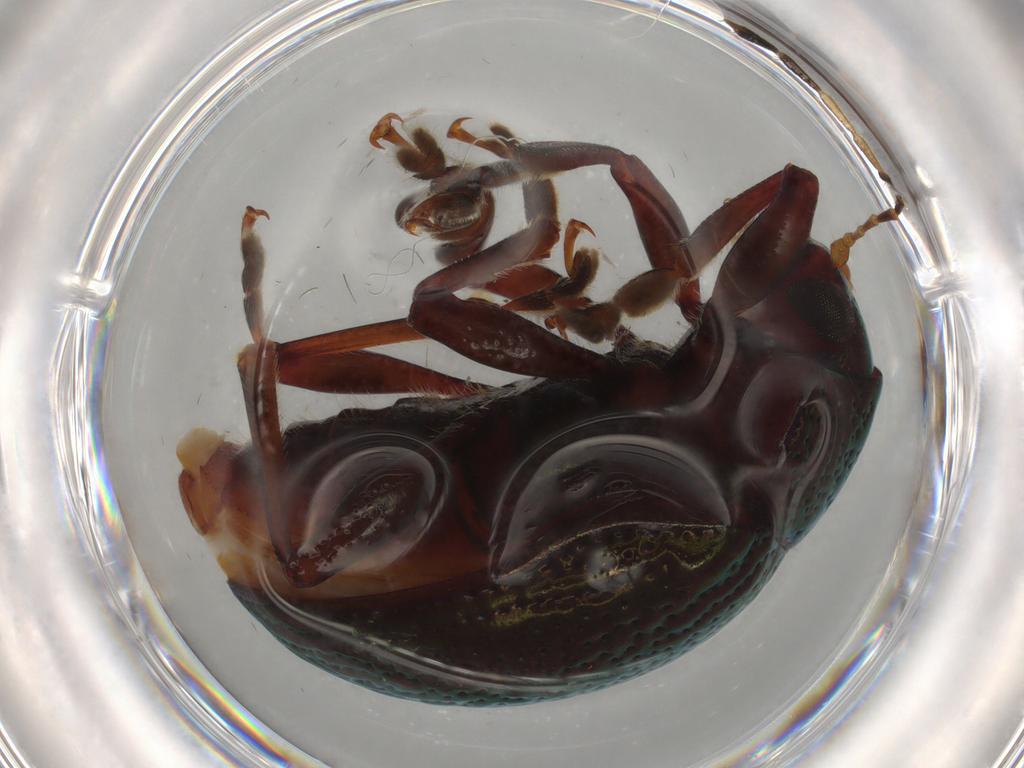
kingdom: Animalia
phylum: Arthropoda
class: Insecta
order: Coleoptera
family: Chrysomelidae
